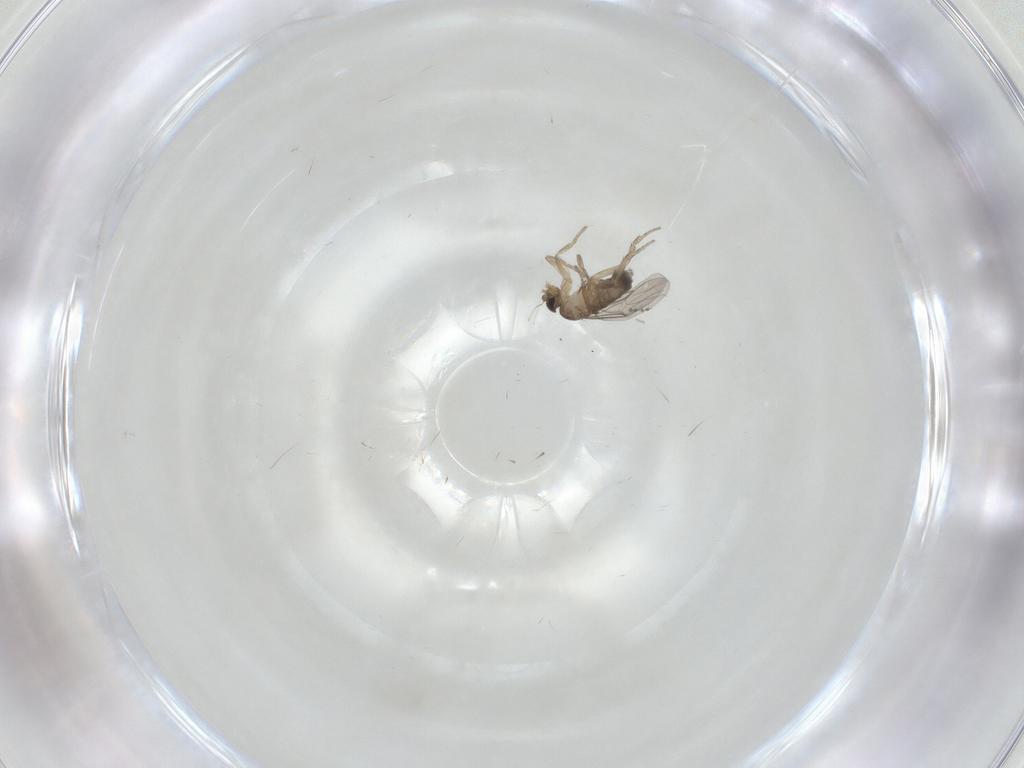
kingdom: Animalia
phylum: Arthropoda
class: Insecta
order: Diptera
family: Phoridae
